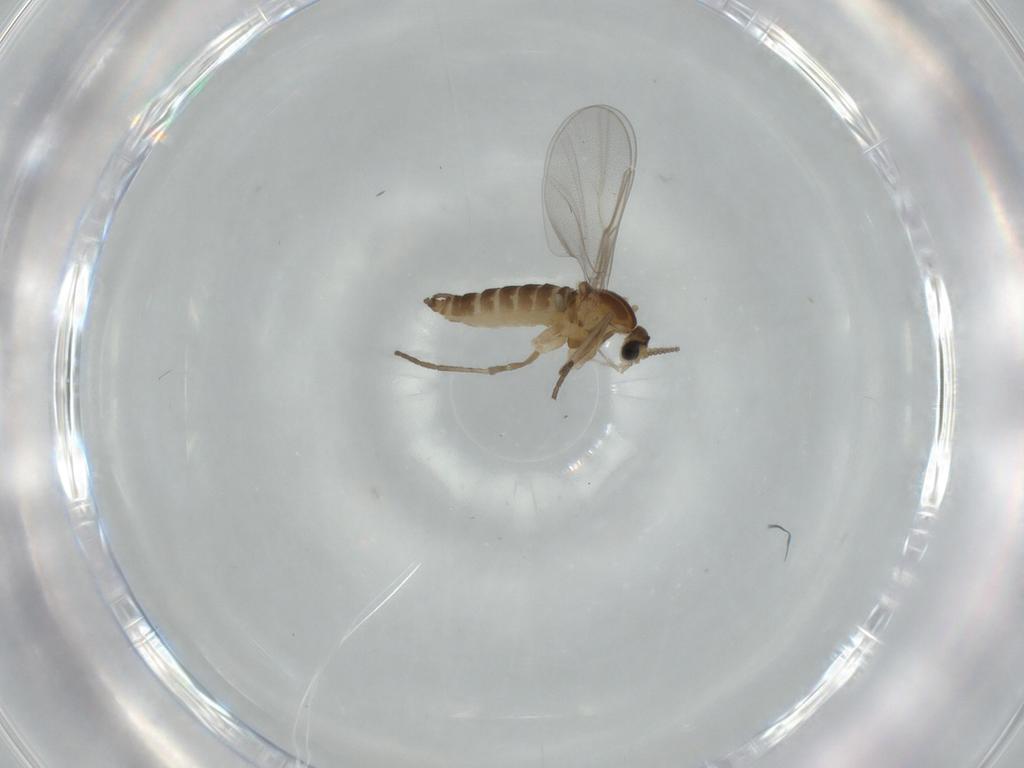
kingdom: Animalia
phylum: Arthropoda
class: Insecta
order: Diptera
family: Cecidomyiidae
